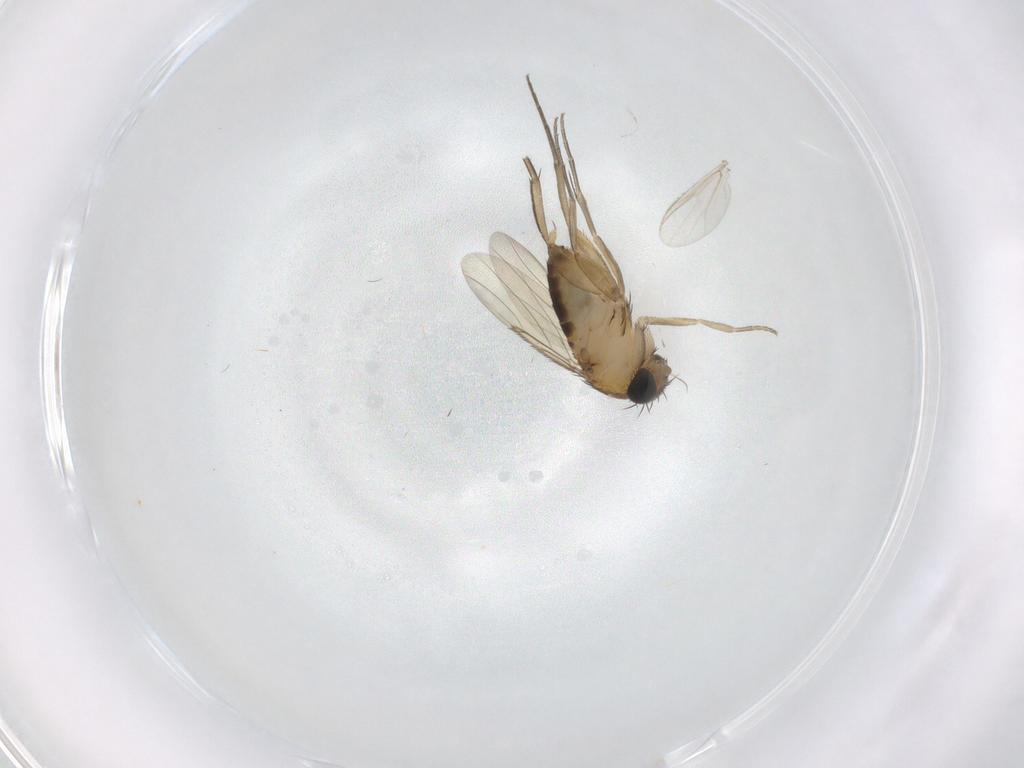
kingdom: Animalia
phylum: Arthropoda
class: Insecta
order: Diptera
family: Phoridae
